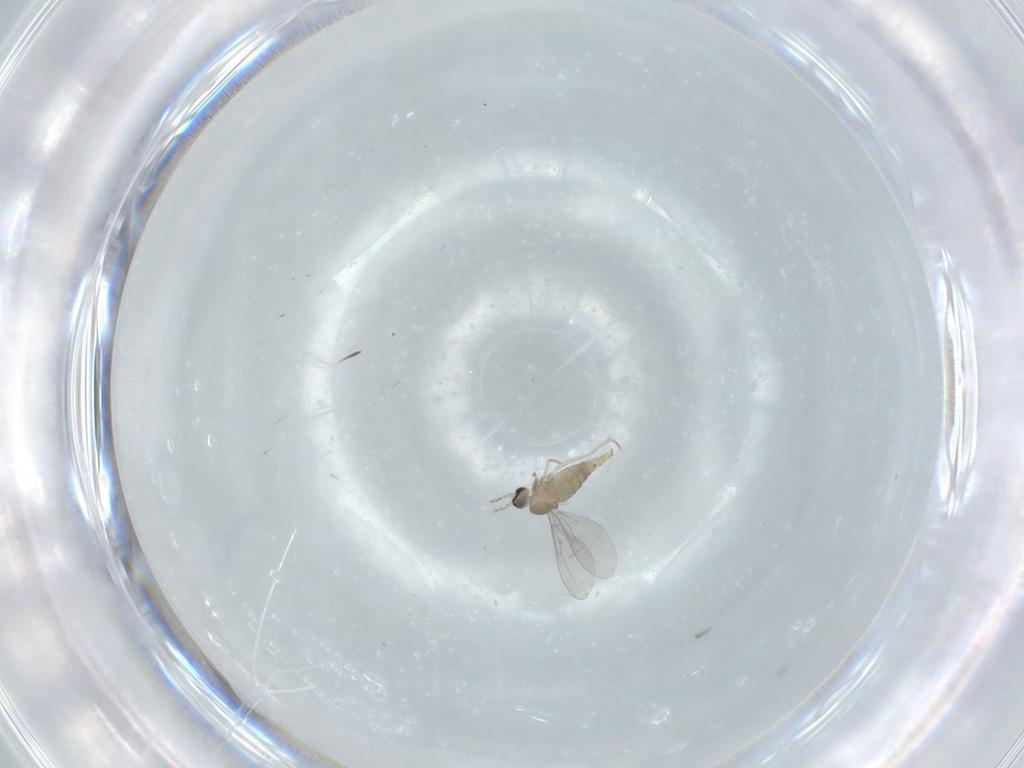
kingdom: Animalia
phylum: Arthropoda
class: Insecta
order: Diptera
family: Cecidomyiidae
